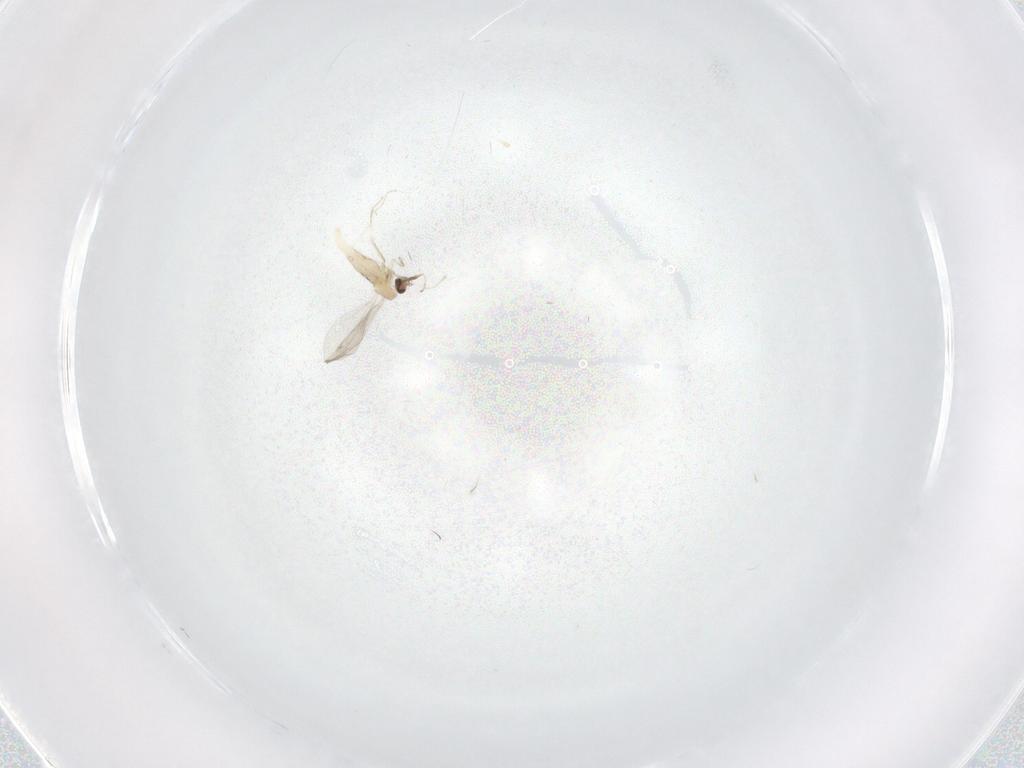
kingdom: Animalia
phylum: Arthropoda
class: Insecta
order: Diptera
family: Cecidomyiidae
